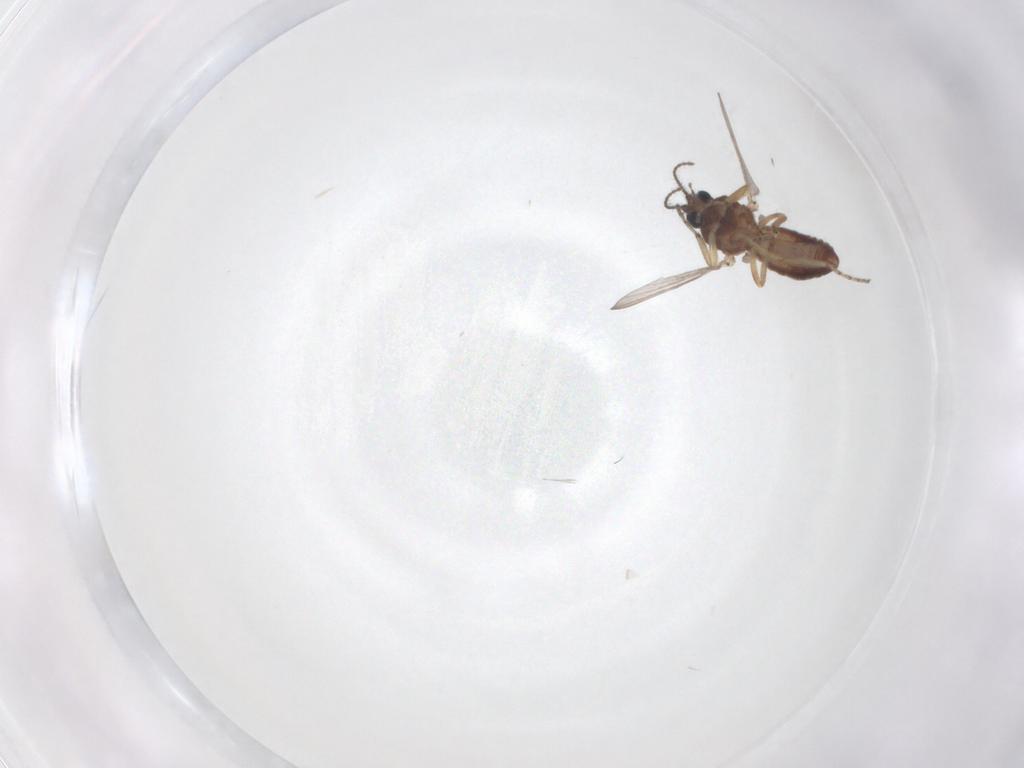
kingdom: Animalia
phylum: Arthropoda
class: Insecta
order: Diptera
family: Ceratopogonidae
